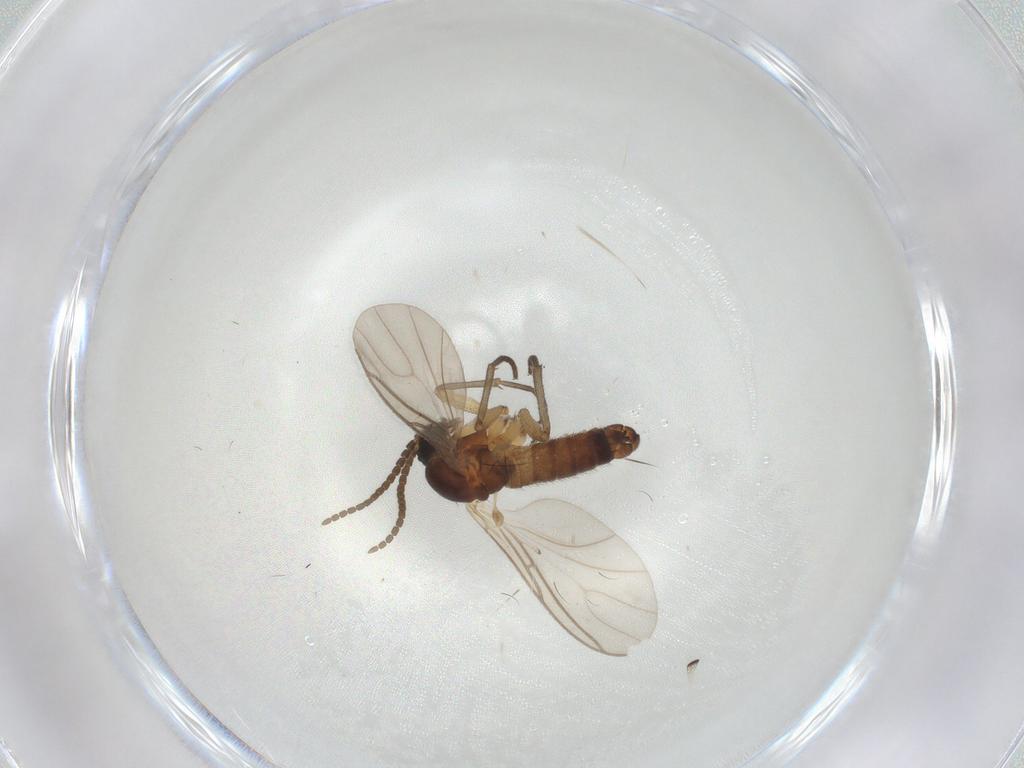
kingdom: Animalia
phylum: Arthropoda
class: Insecta
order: Diptera
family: Sciaridae
